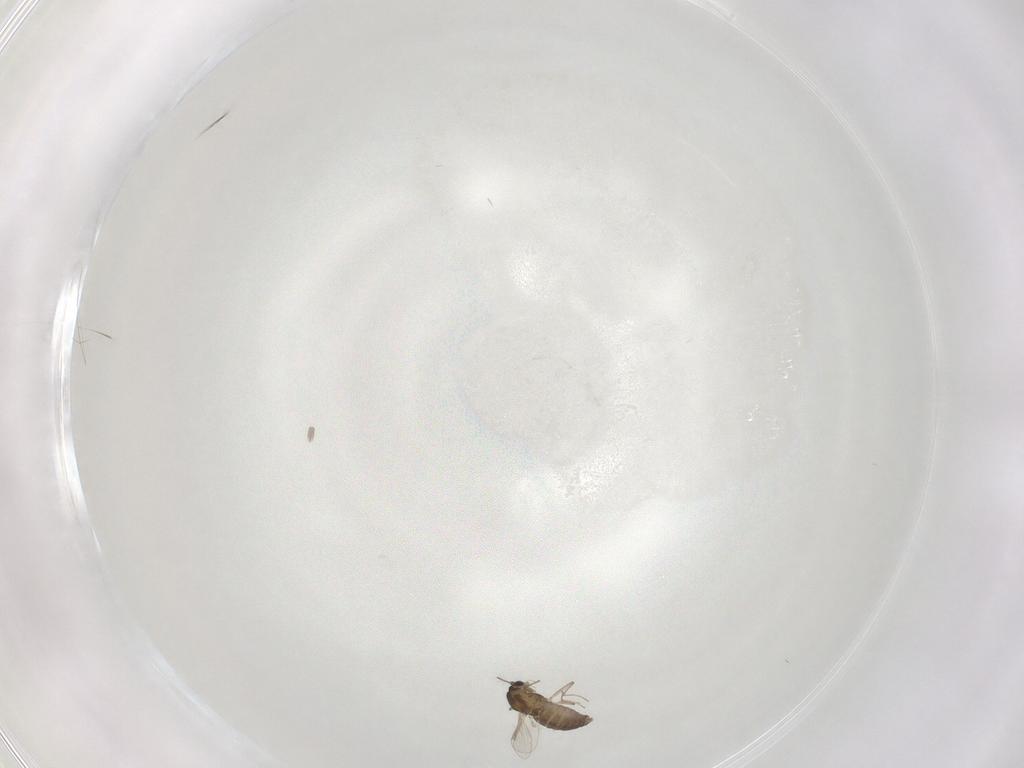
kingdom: Animalia
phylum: Arthropoda
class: Insecta
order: Diptera
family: Chironomidae
